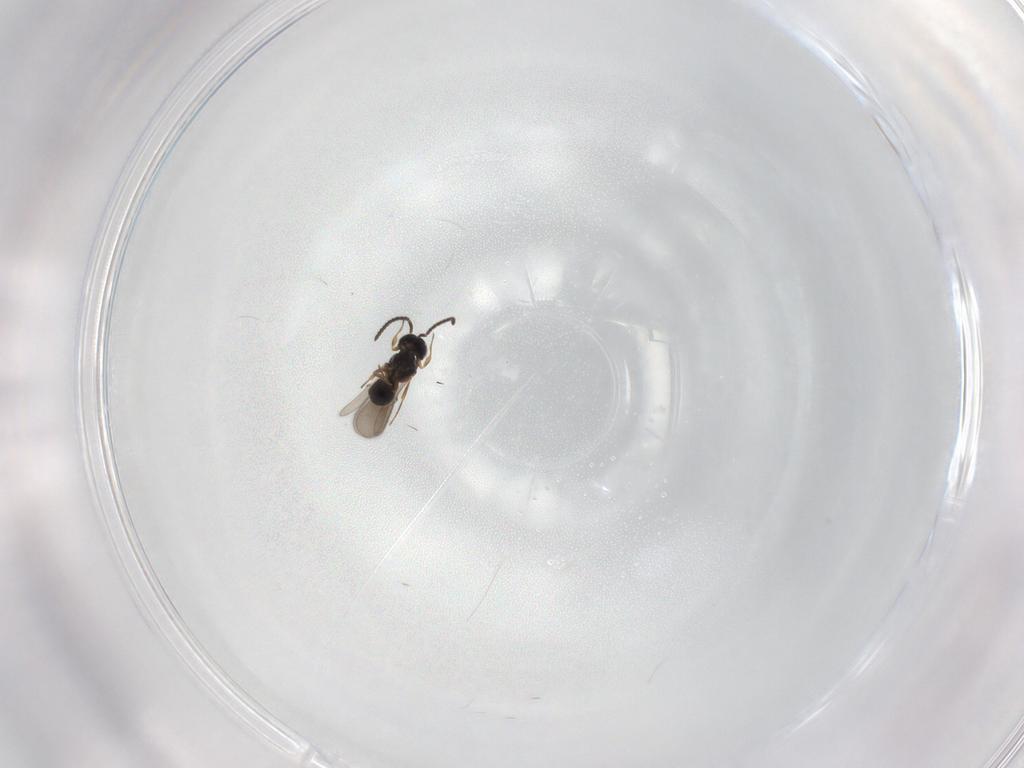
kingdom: Animalia
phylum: Arthropoda
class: Insecta
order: Hymenoptera
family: Scelionidae
